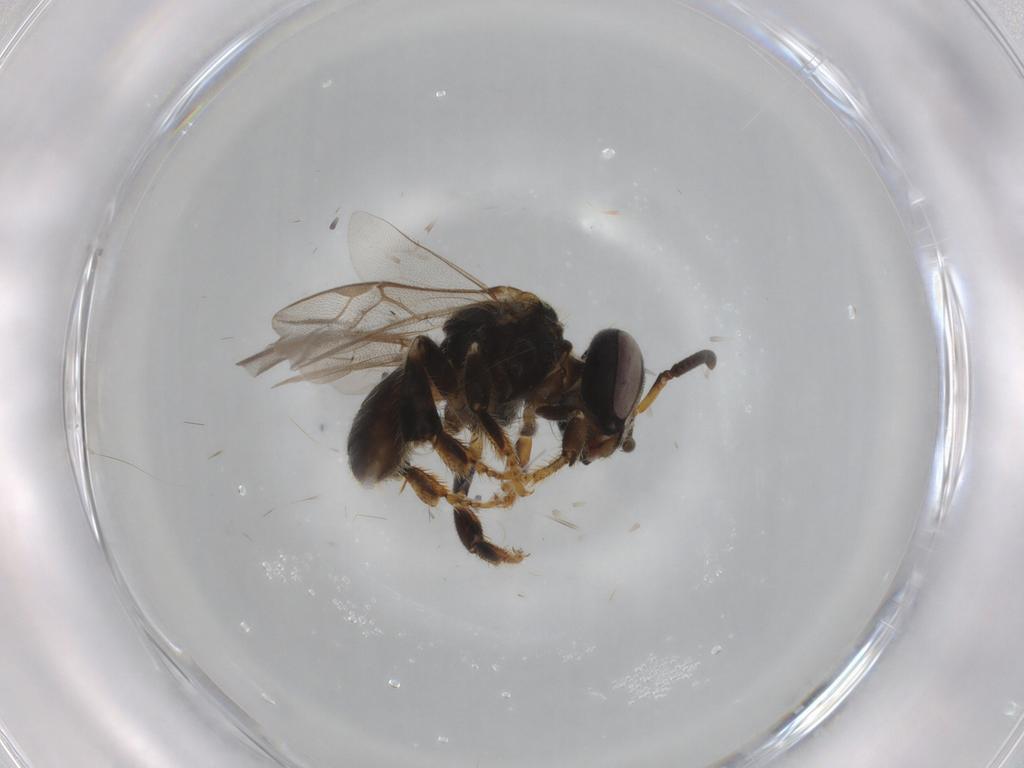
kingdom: Animalia
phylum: Arthropoda
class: Insecta
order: Hymenoptera
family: Apidae
